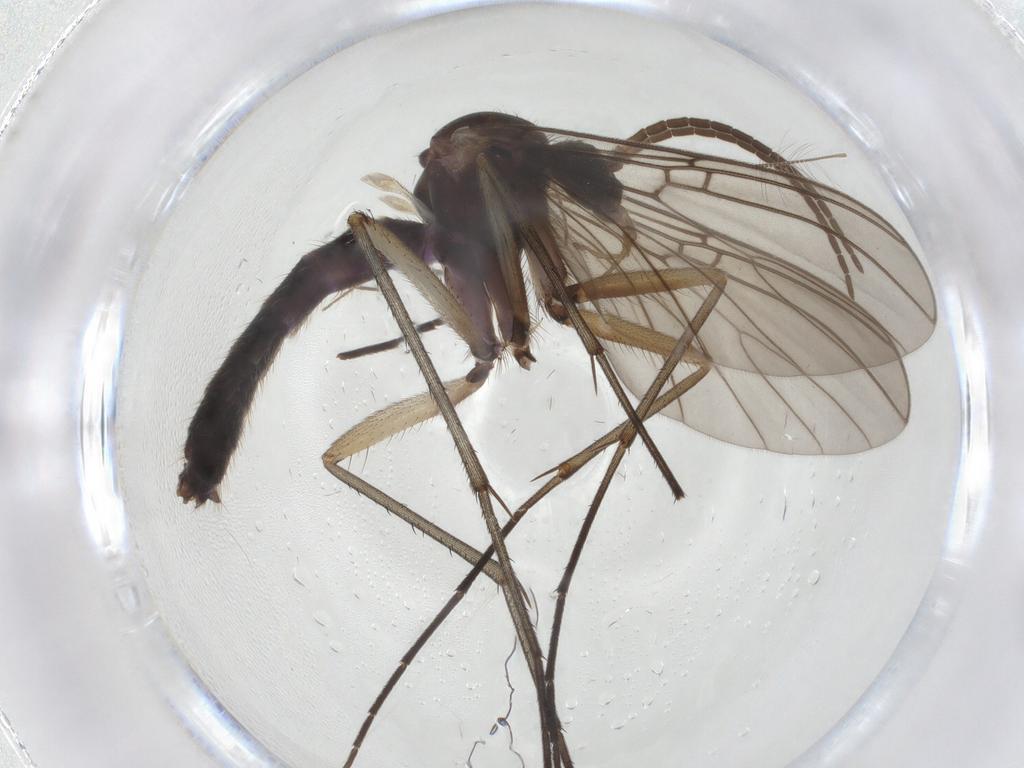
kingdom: Animalia
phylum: Arthropoda
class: Insecta
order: Diptera
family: Mycetophilidae
